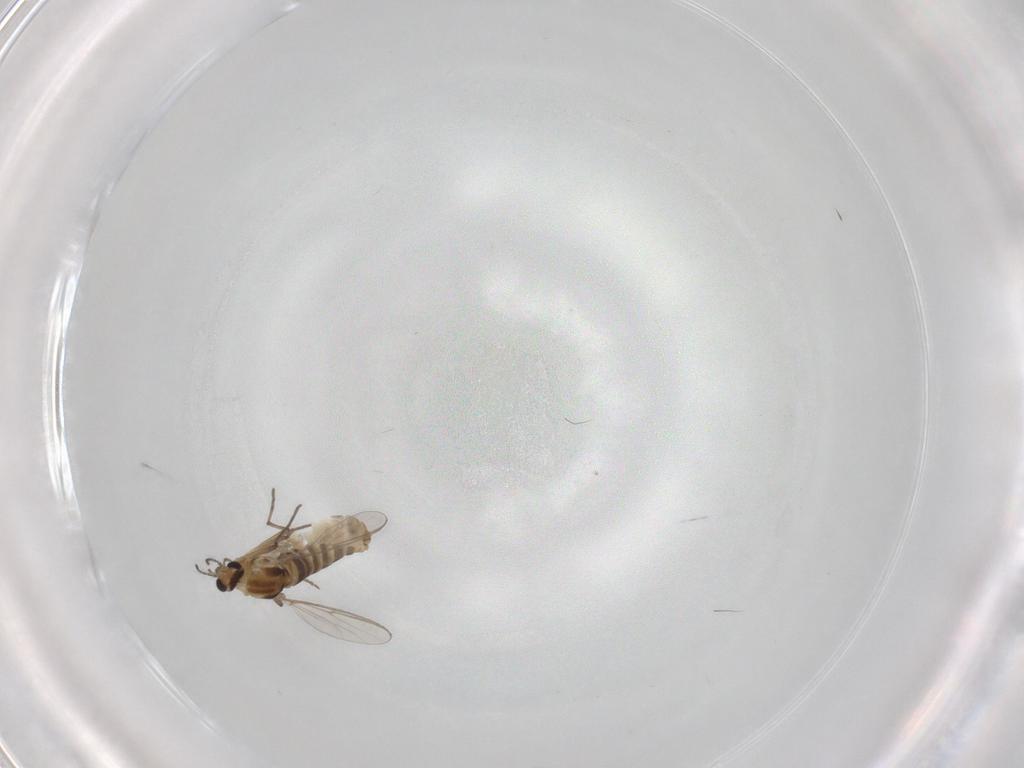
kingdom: Animalia
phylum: Arthropoda
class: Insecta
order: Diptera
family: Chironomidae
